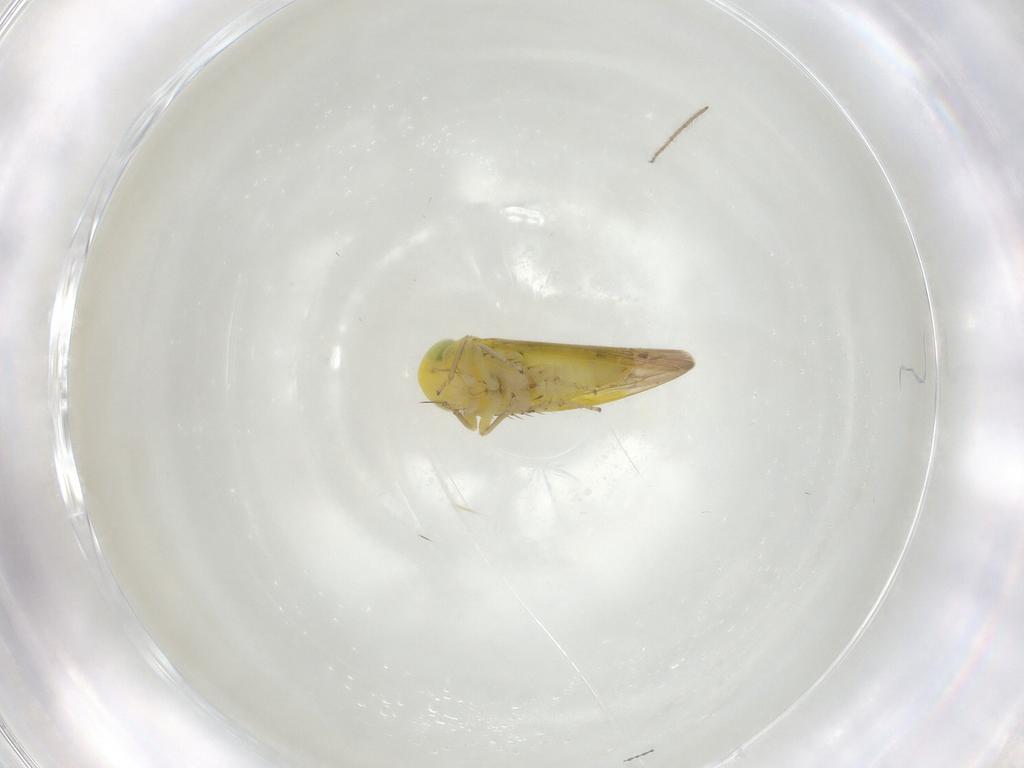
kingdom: Animalia
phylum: Arthropoda
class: Insecta
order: Hemiptera
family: Cicadellidae
